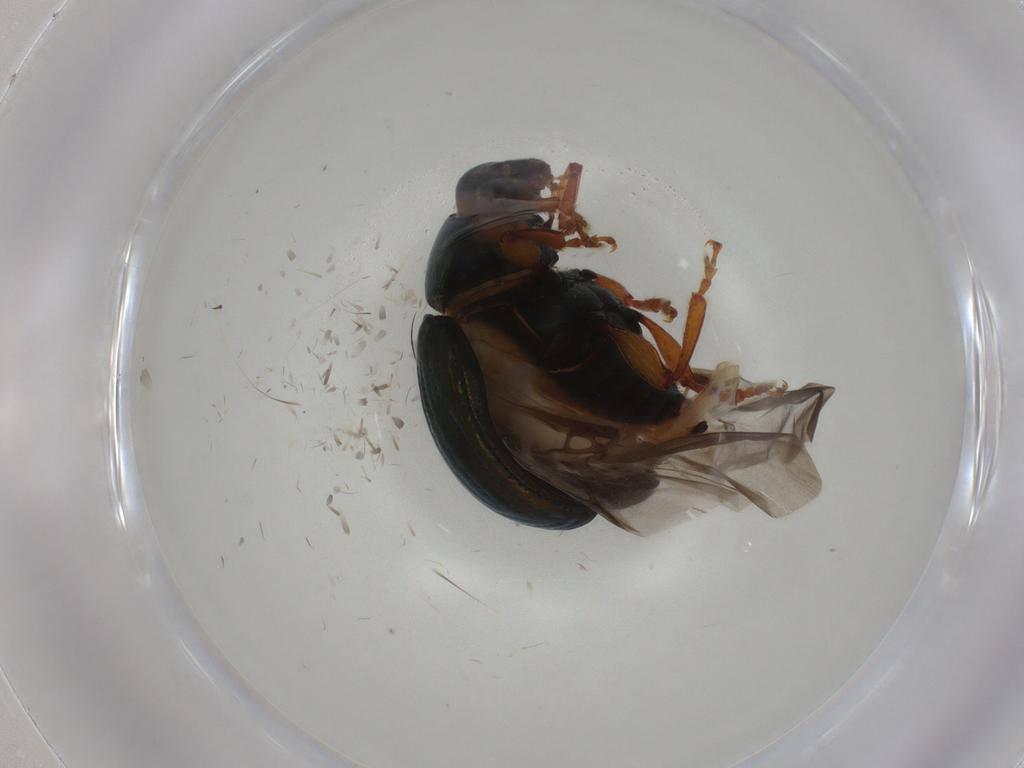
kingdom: Animalia
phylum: Arthropoda
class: Insecta
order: Coleoptera
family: Chrysomelidae
